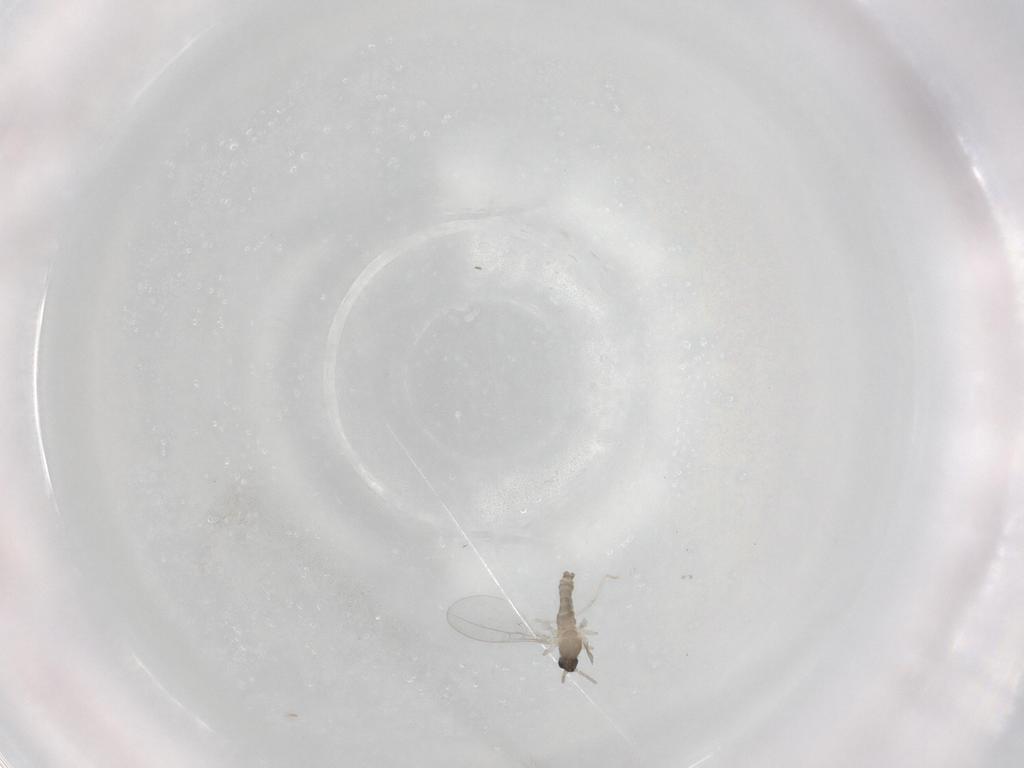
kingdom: Animalia
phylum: Arthropoda
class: Insecta
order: Diptera
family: Cecidomyiidae
